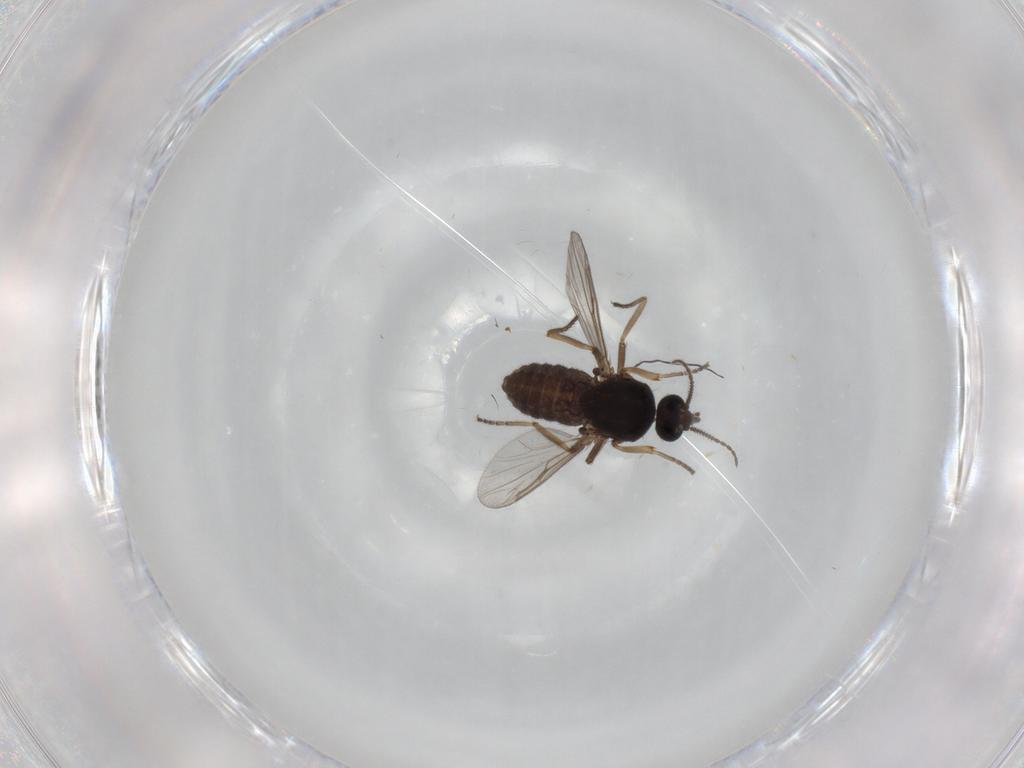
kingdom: Animalia
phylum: Arthropoda
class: Insecta
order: Diptera
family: Ceratopogonidae
